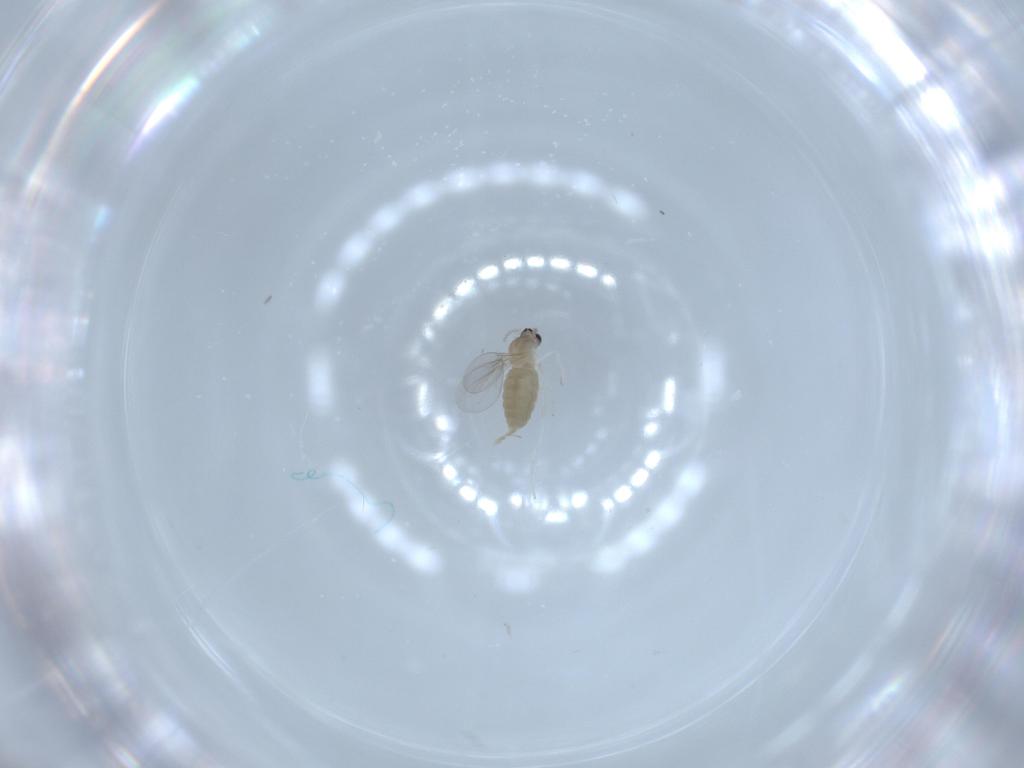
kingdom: Animalia
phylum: Arthropoda
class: Insecta
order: Diptera
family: Cecidomyiidae
